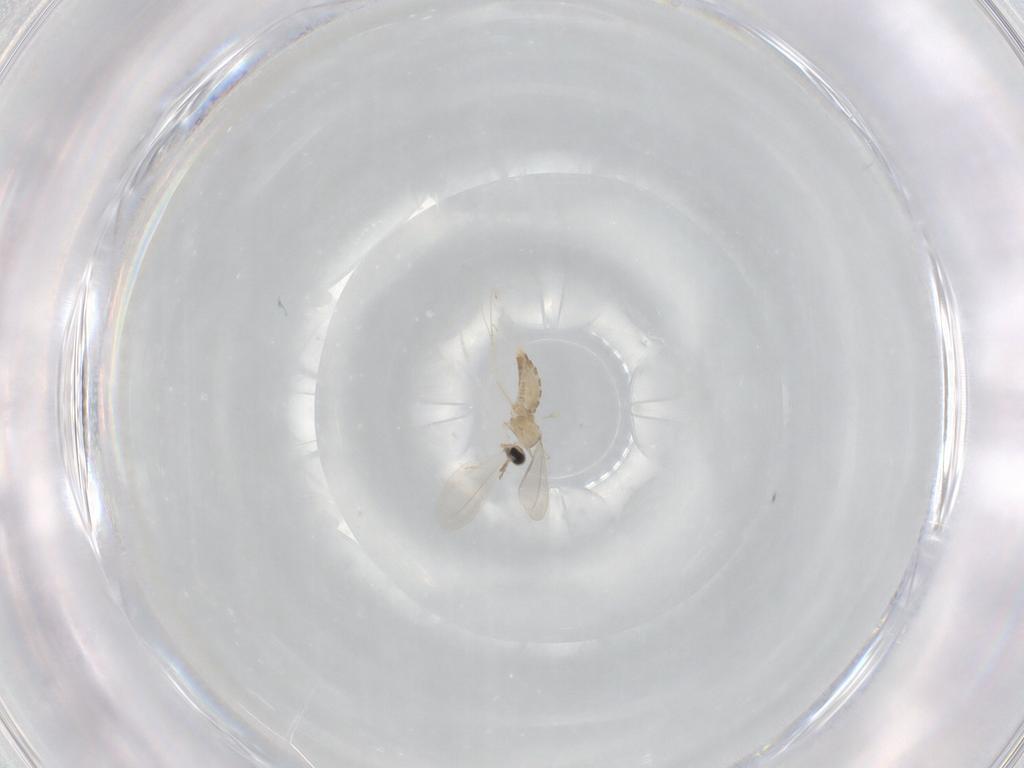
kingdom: Animalia
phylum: Arthropoda
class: Insecta
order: Diptera
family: Cecidomyiidae
